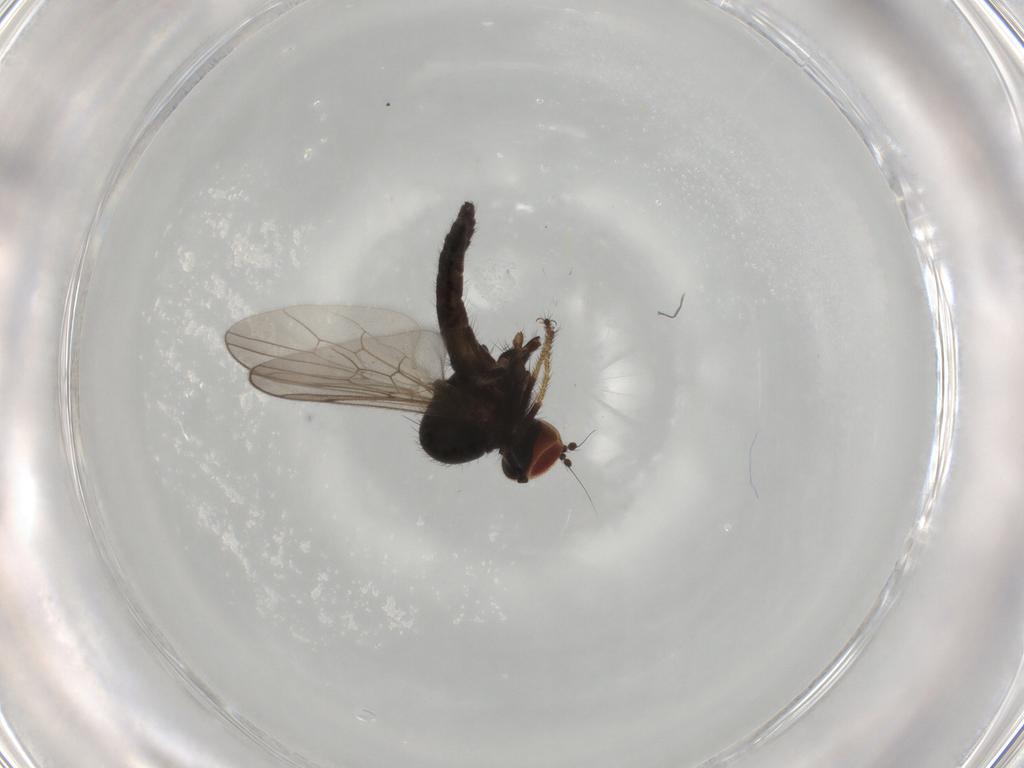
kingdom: Animalia
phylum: Arthropoda
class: Insecta
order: Diptera
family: Hybotidae
